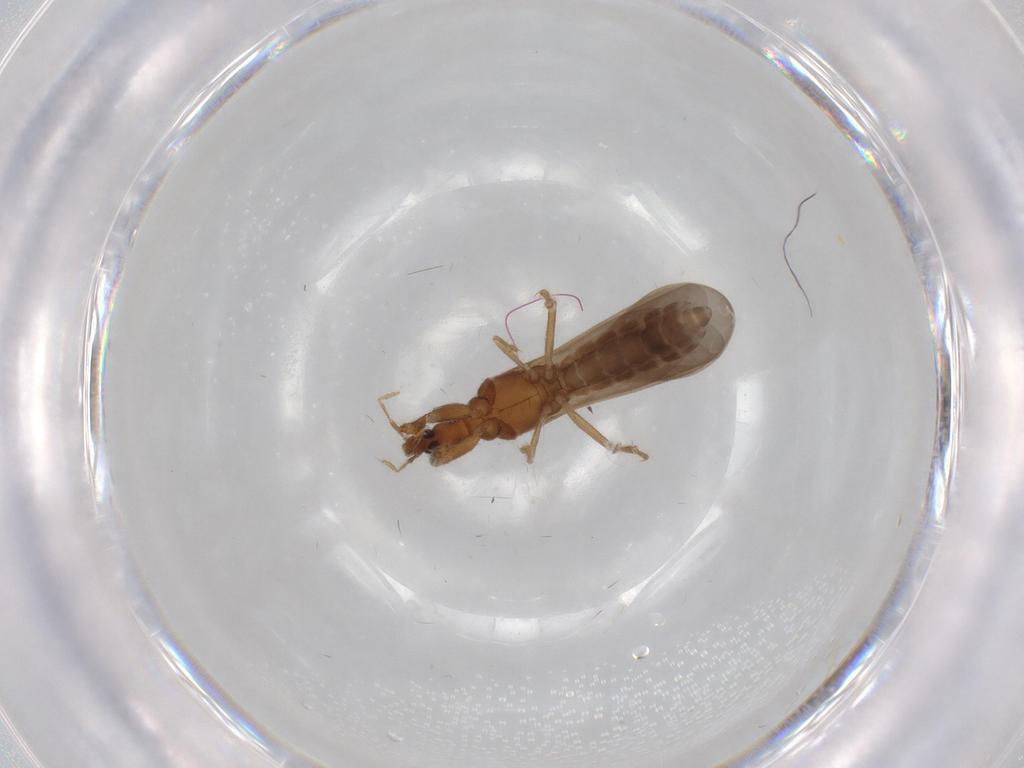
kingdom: Animalia
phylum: Arthropoda
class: Insecta
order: Hemiptera
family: Enicocephalidae
